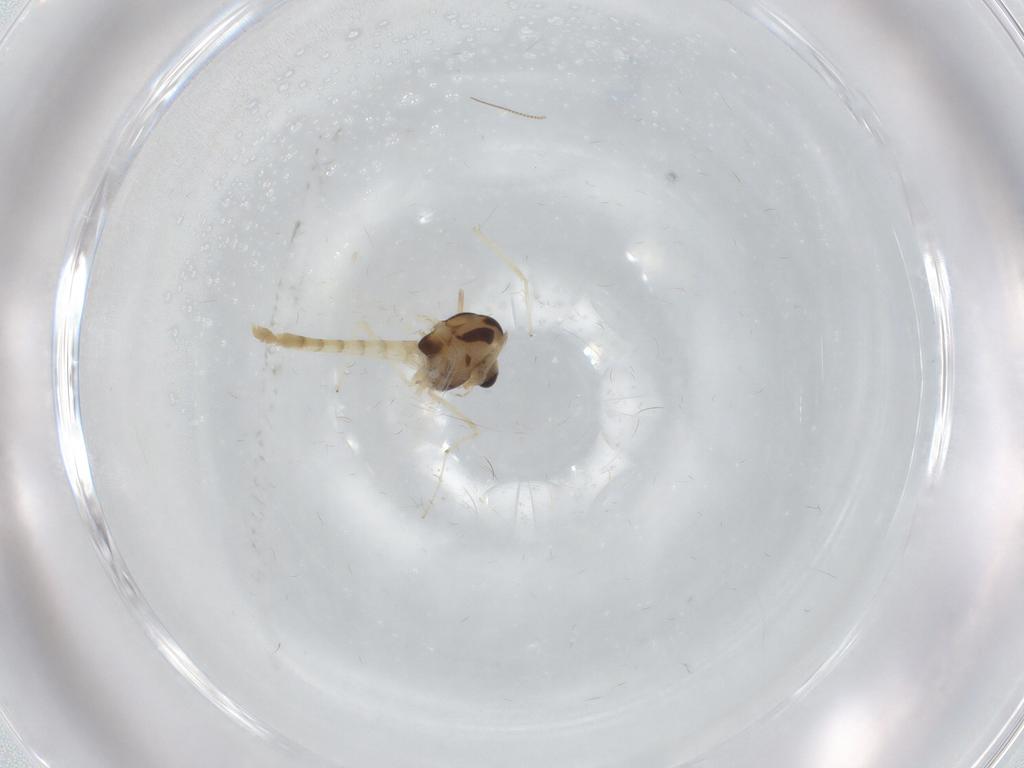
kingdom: Animalia
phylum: Arthropoda
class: Insecta
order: Diptera
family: Chironomidae
